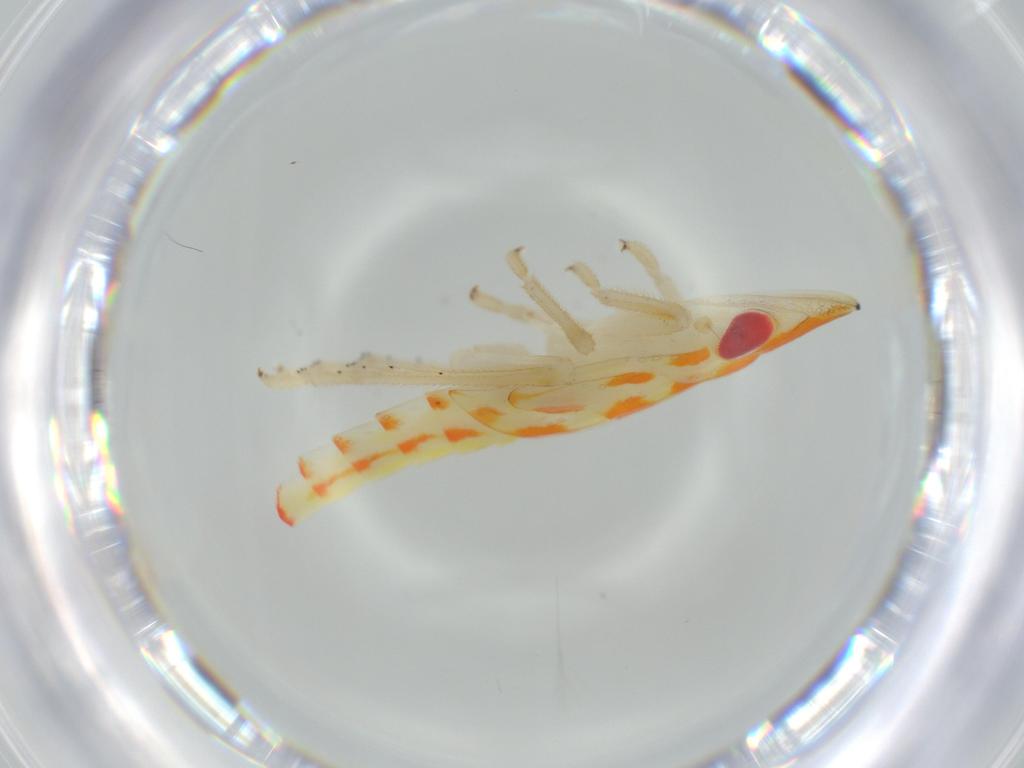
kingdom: Animalia
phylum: Arthropoda
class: Insecta
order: Hemiptera
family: Tropiduchidae
